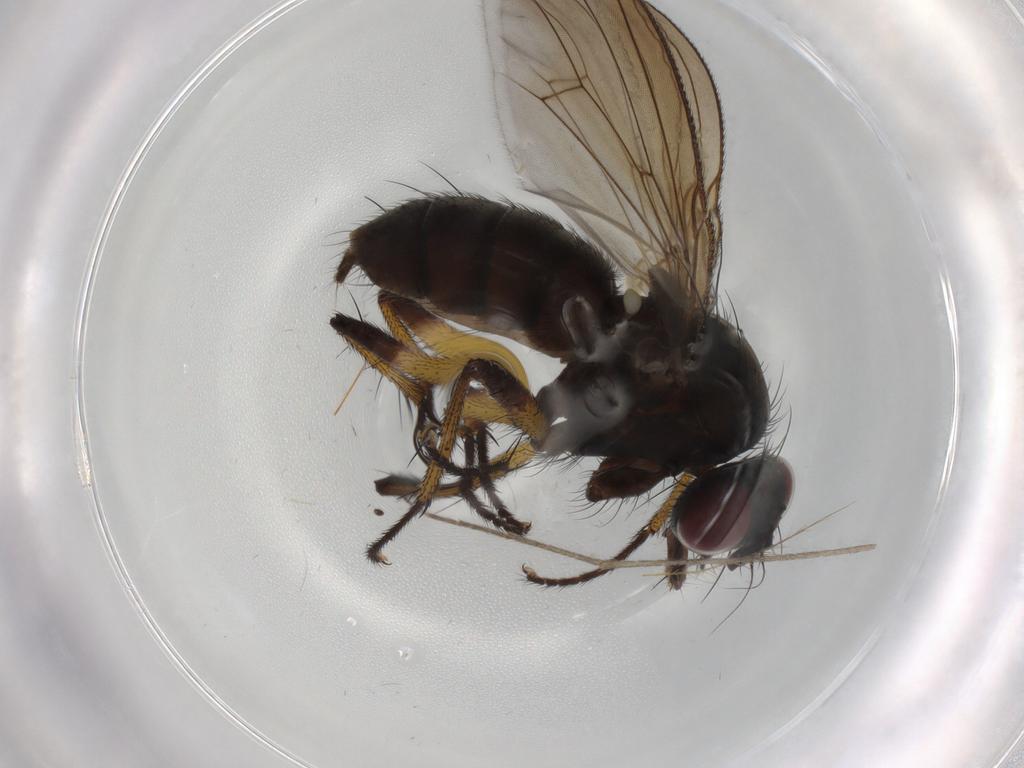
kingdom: Animalia
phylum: Arthropoda
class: Insecta
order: Diptera
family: Muscidae
